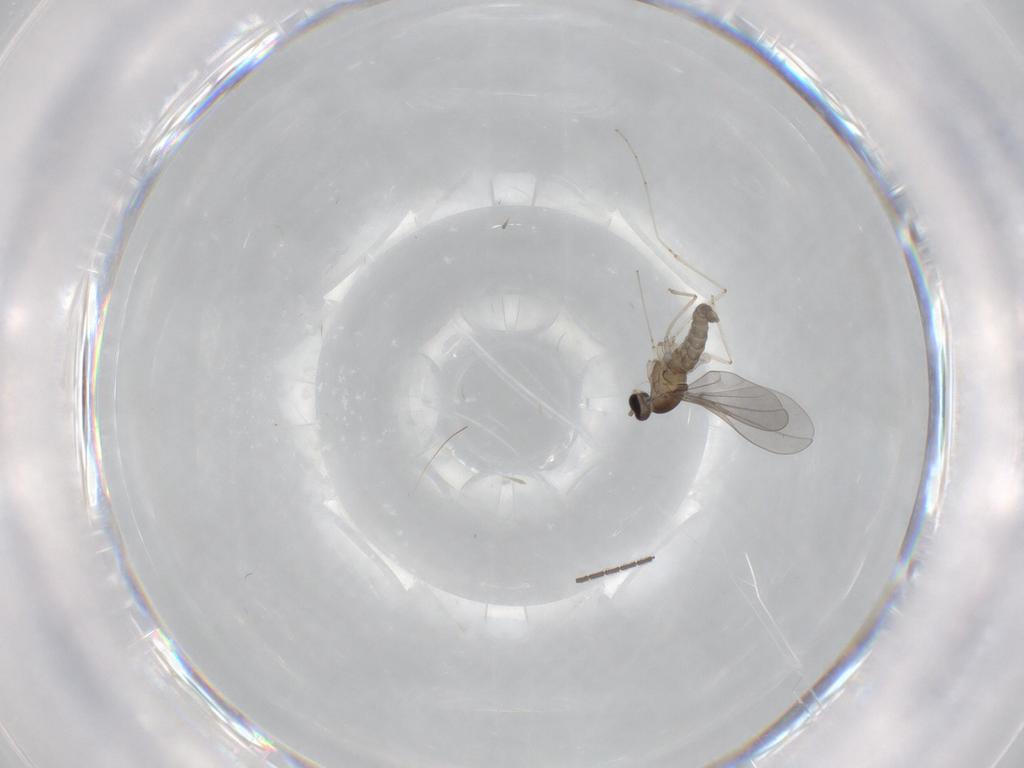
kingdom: Animalia
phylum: Arthropoda
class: Insecta
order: Diptera
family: Cecidomyiidae
